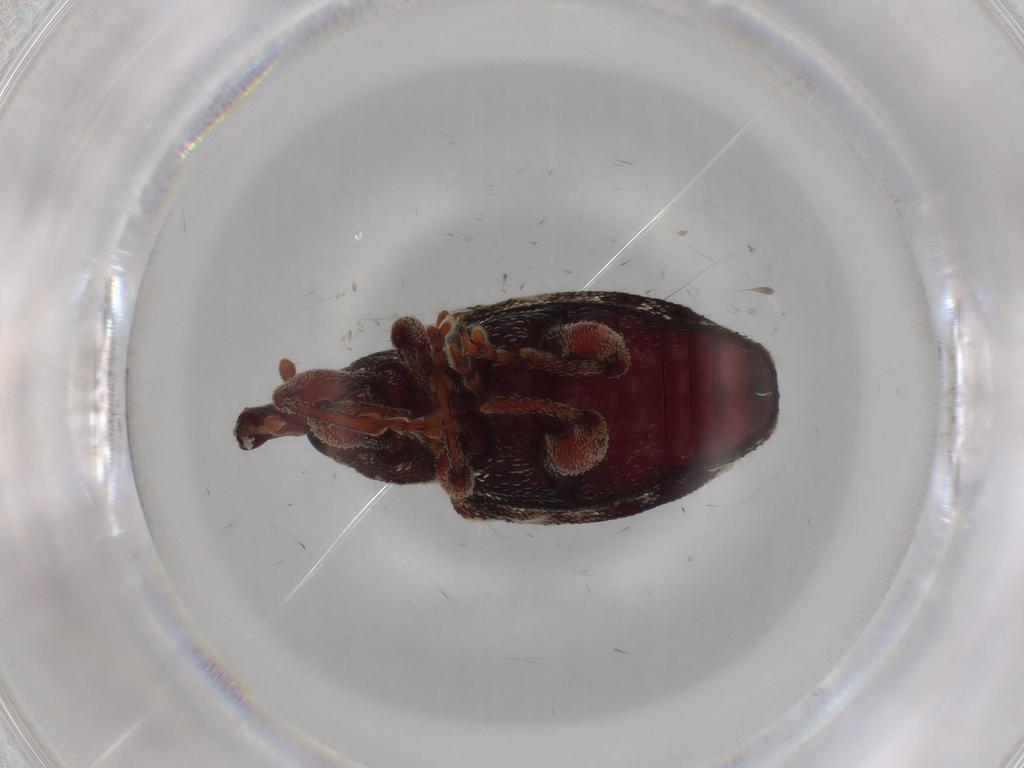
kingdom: Animalia
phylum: Arthropoda
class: Insecta
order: Coleoptera
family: Curculionidae
